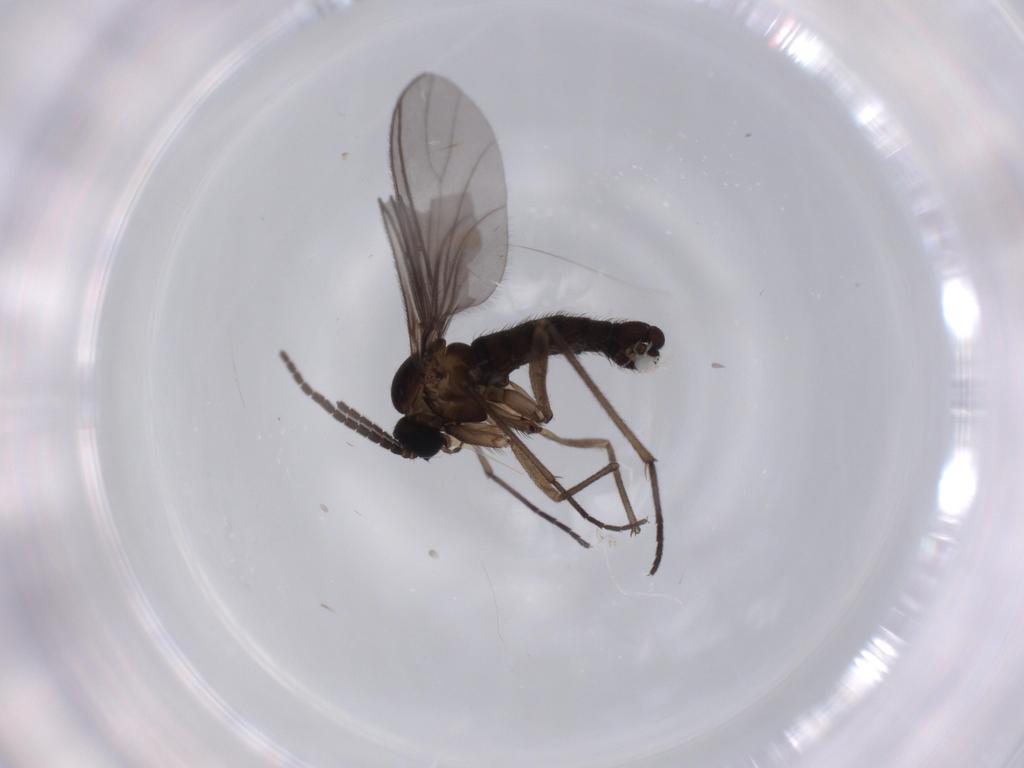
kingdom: Animalia
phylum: Arthropoda
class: Insecta
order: Diptera
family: Sciaridae
